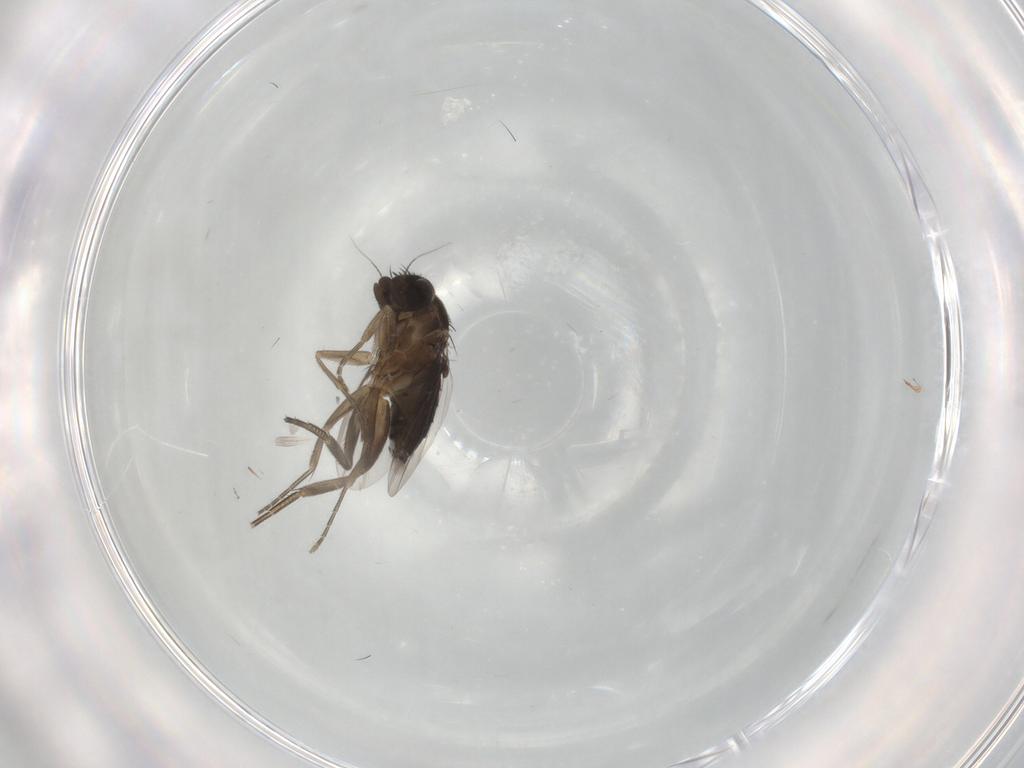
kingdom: Animalia
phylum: Arthropoda
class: Insecta
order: Diptera
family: Phoridae
